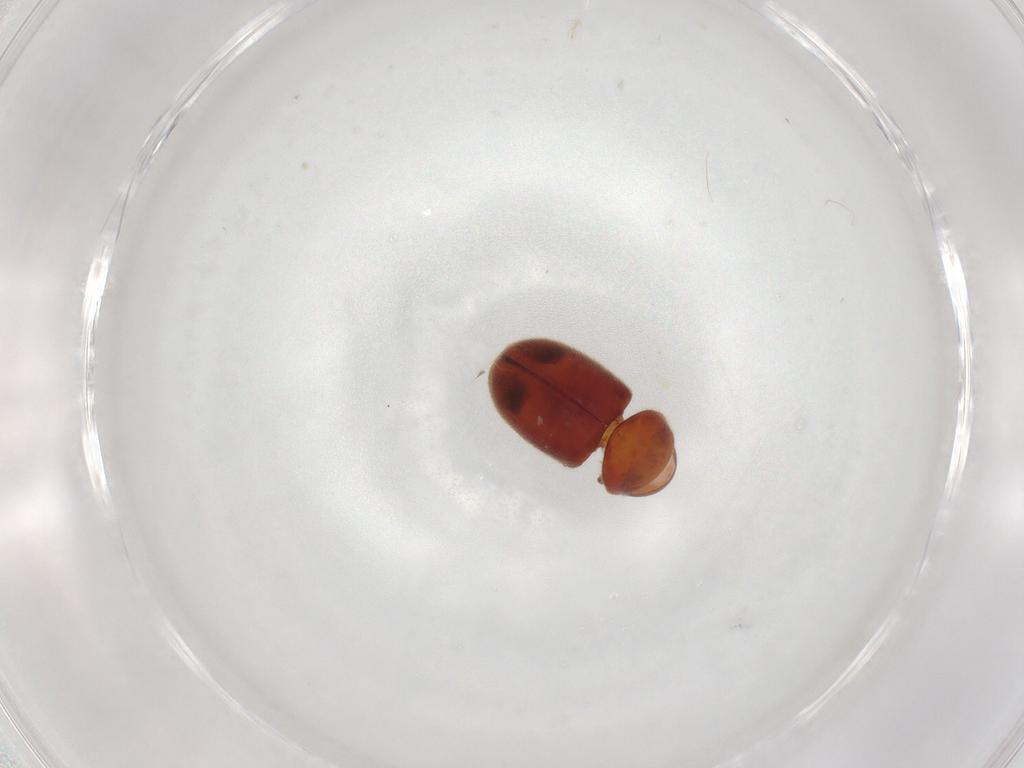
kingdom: Animalia
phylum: Arthropoda
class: Insecta
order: Coleoptera
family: Ptinidae
